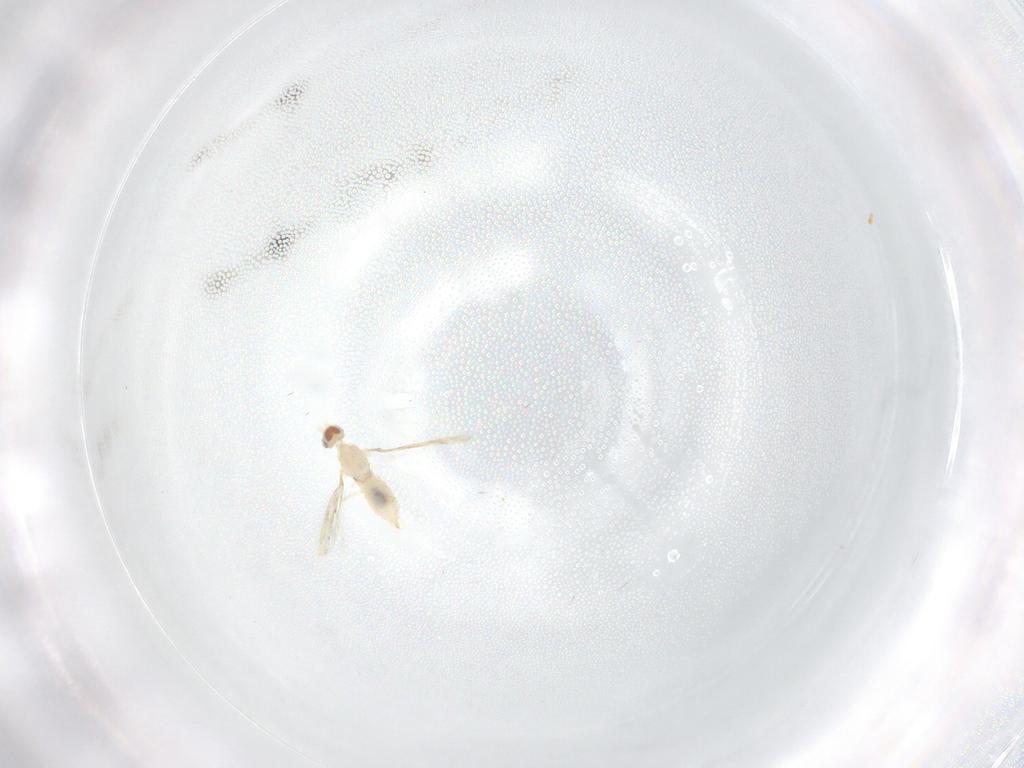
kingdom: Animalia
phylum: Arthropoda
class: Insecta
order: Diptera
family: Cecidomyiidae
